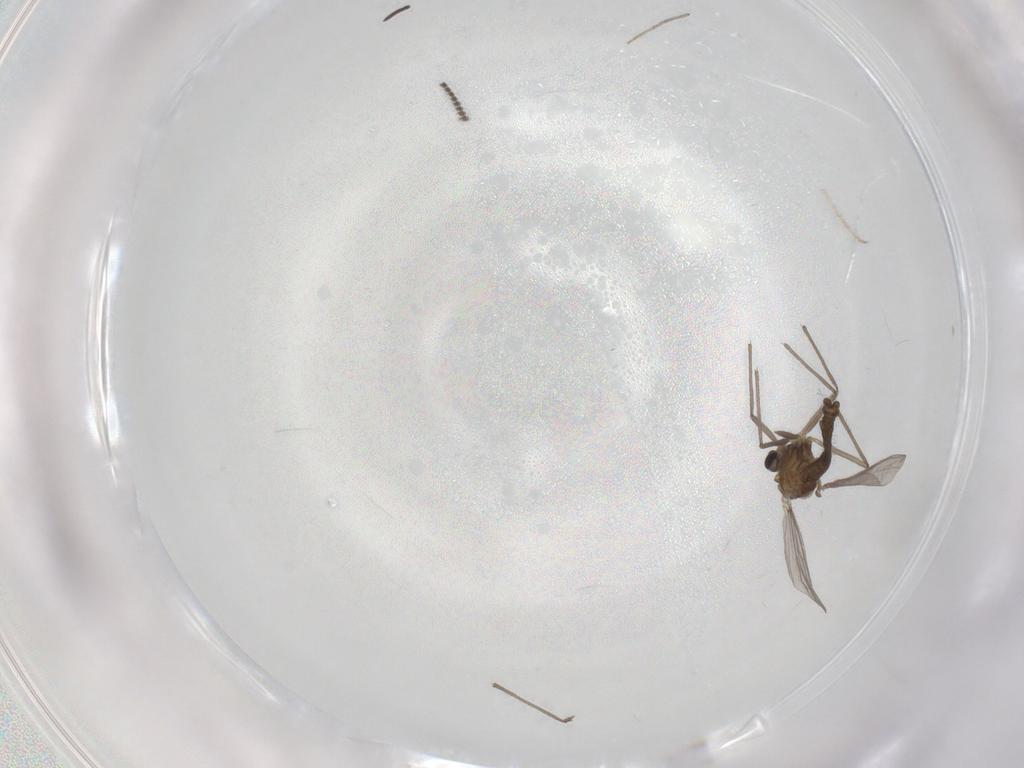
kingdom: Animalia
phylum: Arthropoda
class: Insecta
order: Diptera
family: Chironomidae
